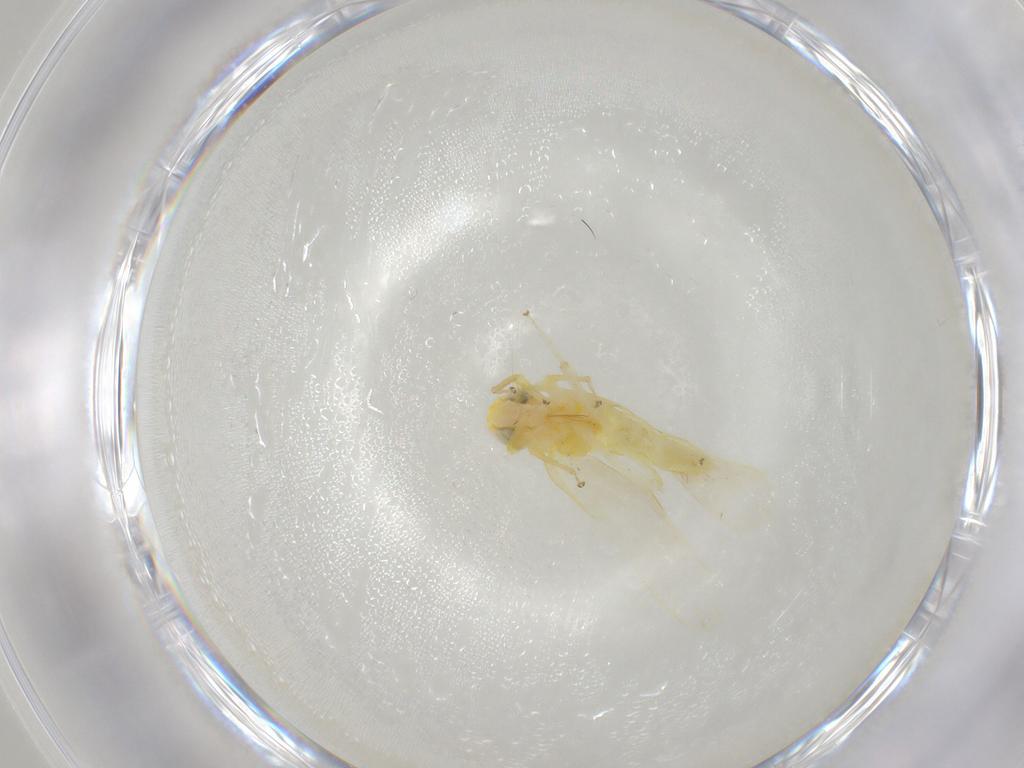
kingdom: Animalia
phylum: Arthropoda
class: Insecta
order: Hemiptera
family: Cicadellidae
